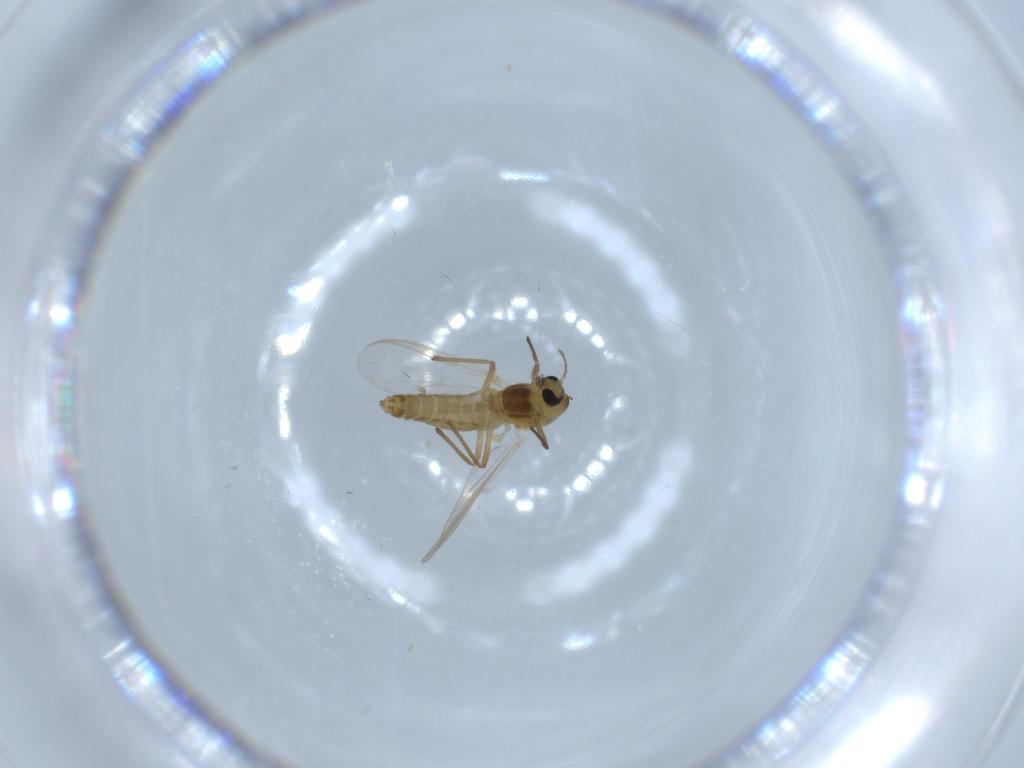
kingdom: Animalia
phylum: Arthropoda
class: Insecta
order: Diptera
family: Chironomidae
